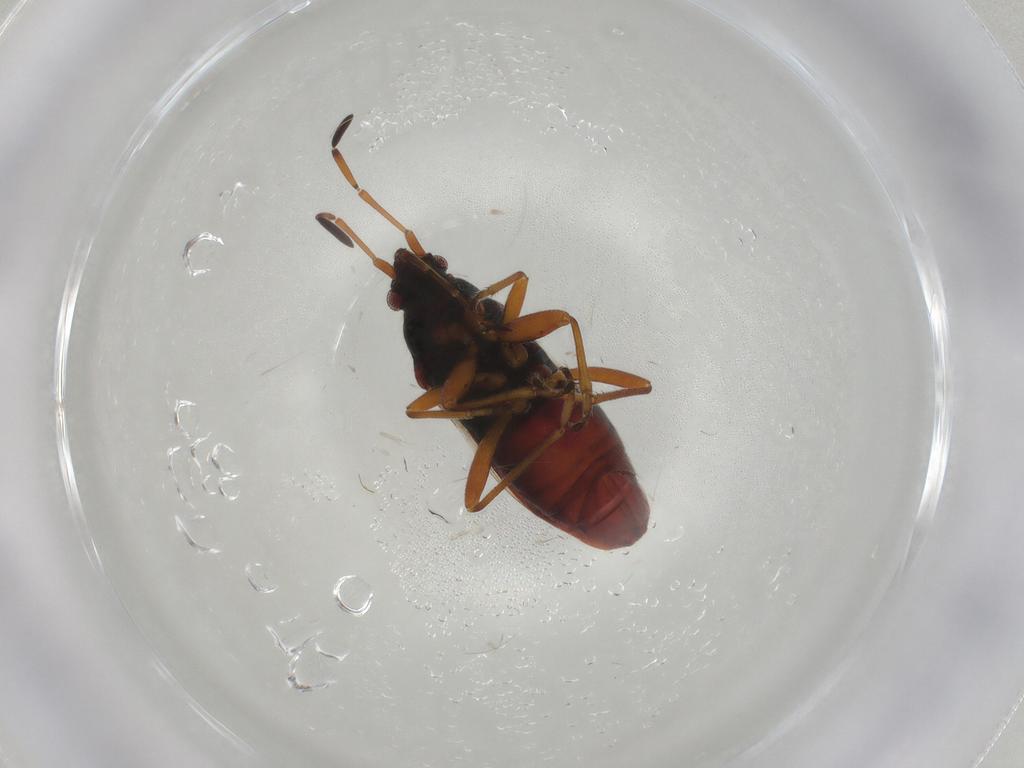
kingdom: Animalia
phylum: Arthropoda
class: Insecta
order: Hemiptera
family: Rhyparochromidae
